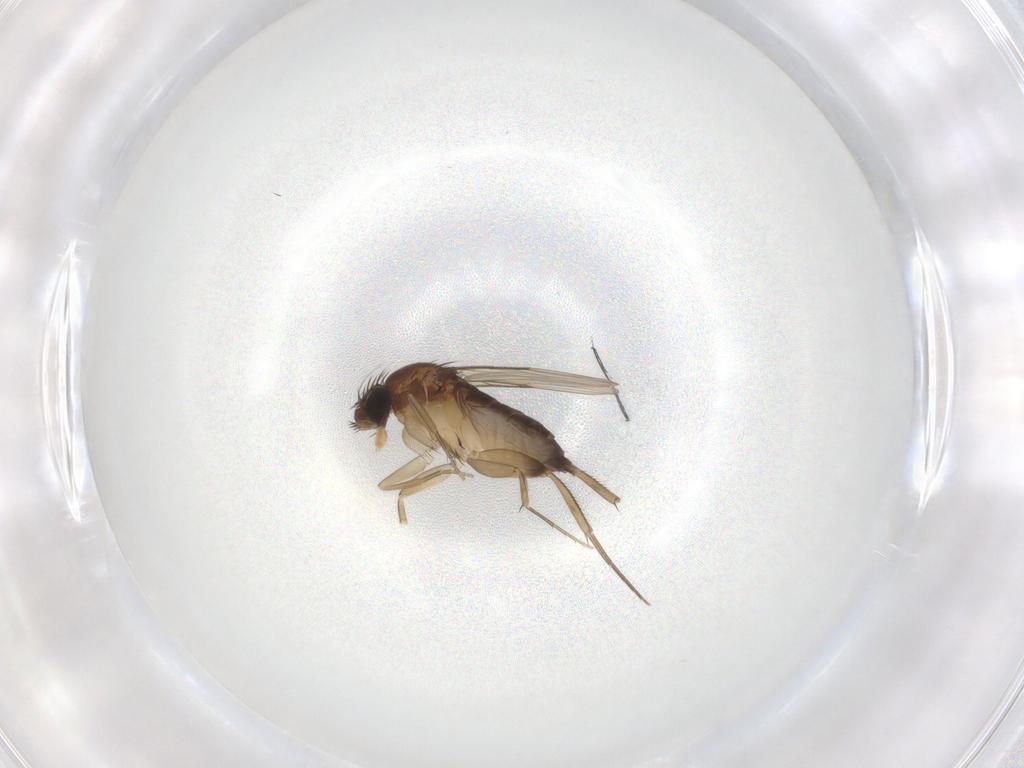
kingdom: Animalia
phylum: Arthropoda
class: Insecta
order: Diptera
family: Phoridae
